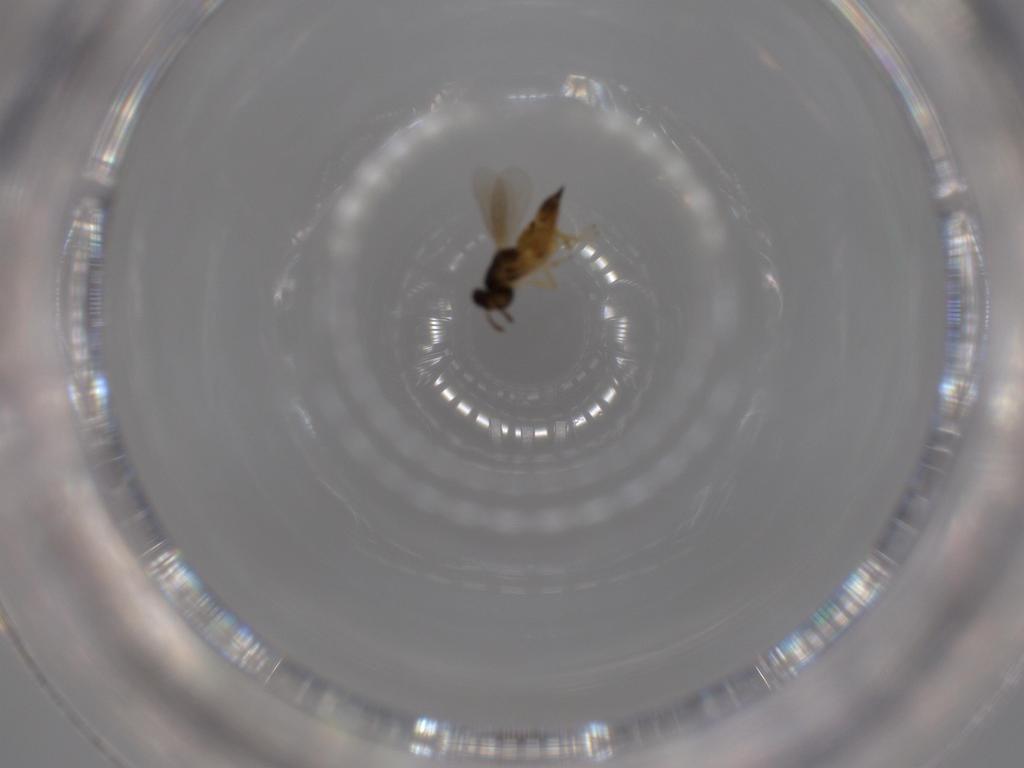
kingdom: Animalia
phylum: Arthropoda
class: Insecta
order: Hymenoptera
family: Eulophidae
